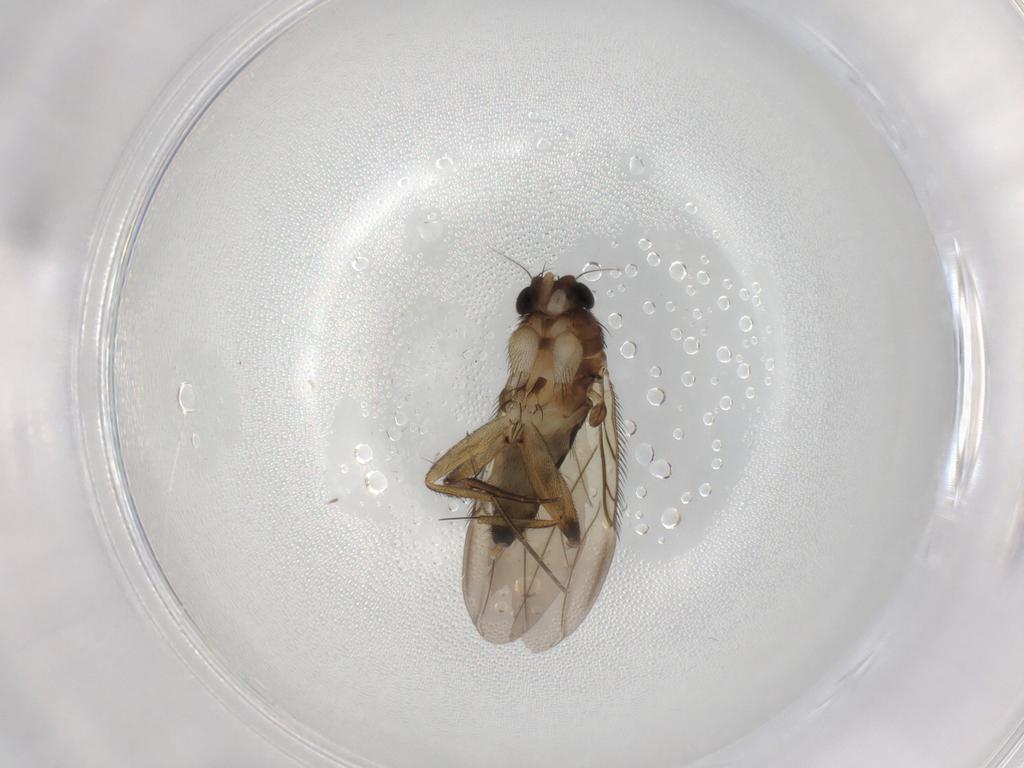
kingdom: Animalia
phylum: Arthropoda
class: Insecta
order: Diptera
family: Phoridae
